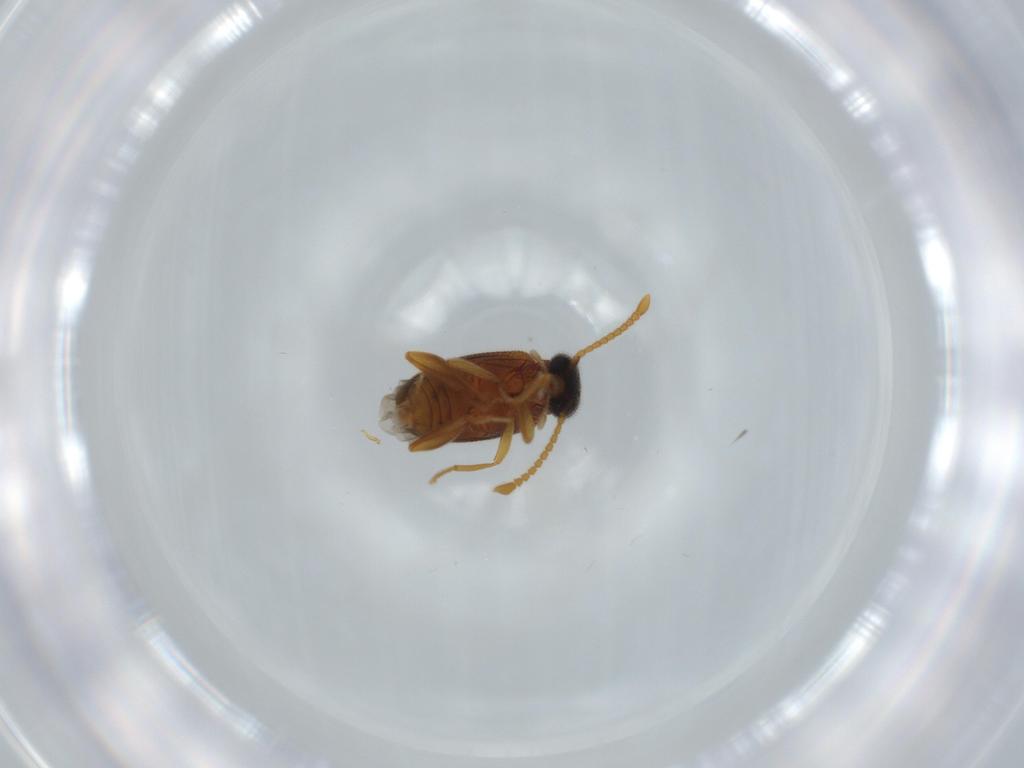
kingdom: Animalia
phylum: Arthropoda
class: Insecta
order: Coleoptera
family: Aderidae
